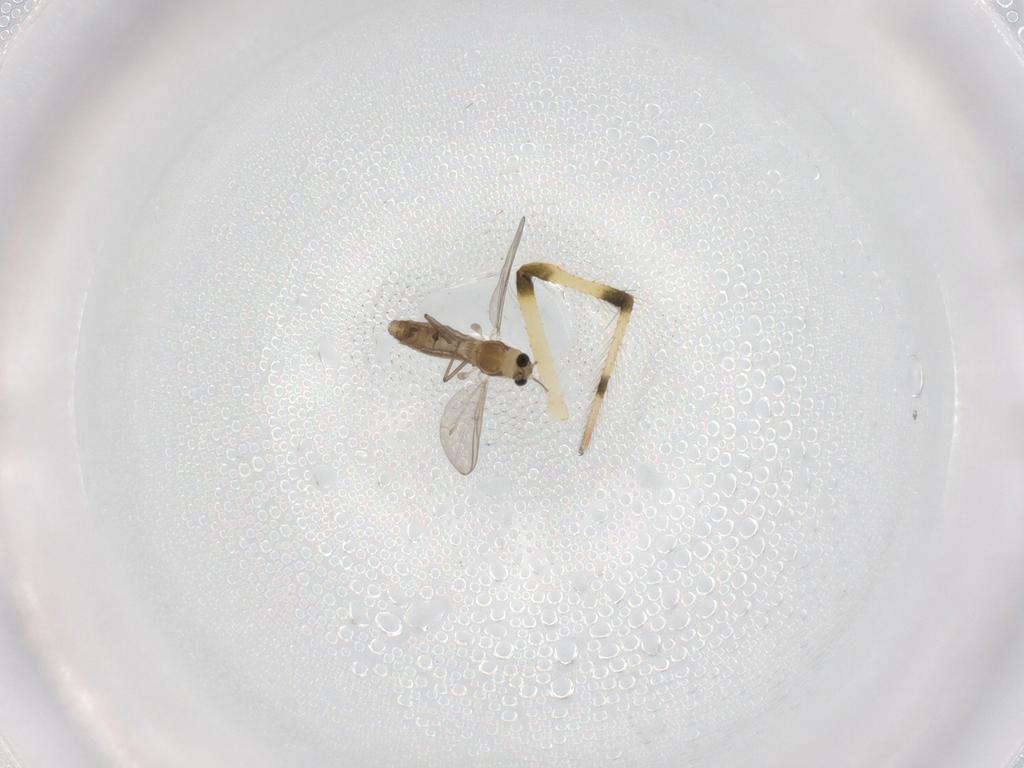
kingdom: Animalia
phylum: Arthropoda
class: Insecta
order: Diptera
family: Chironomidae
